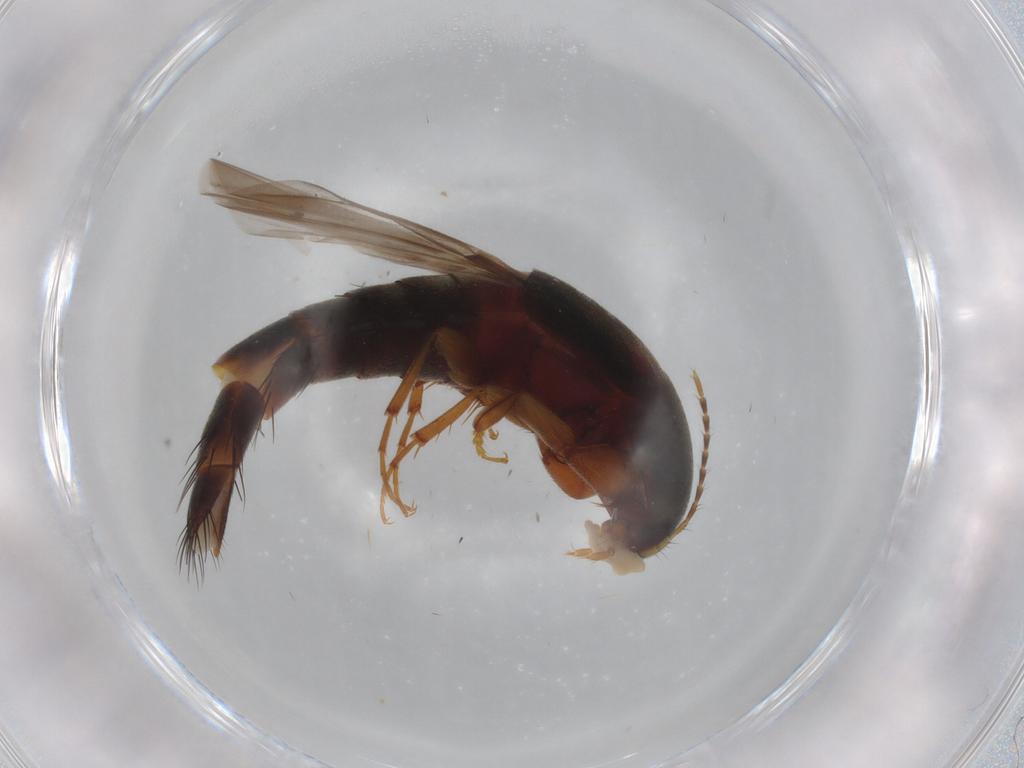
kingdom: Animalia
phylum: Arthropoda
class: Insecta
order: Coleoptera
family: Staphylinidae
